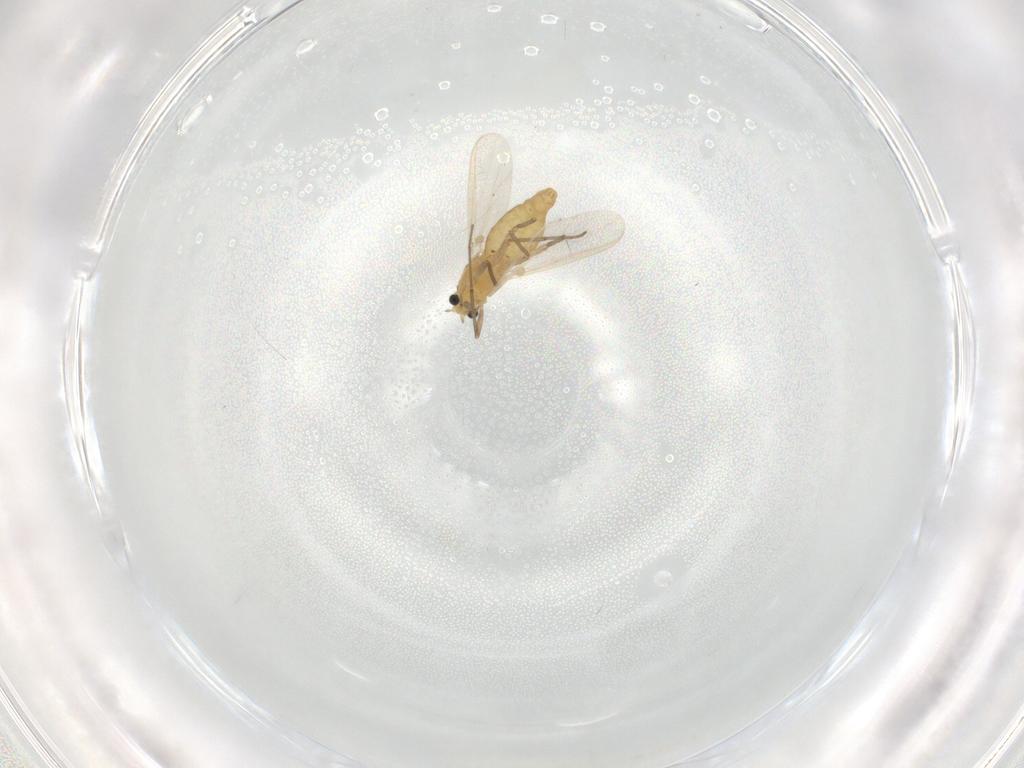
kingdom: Animalia
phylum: Arthropoda
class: Insecta
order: Diptera
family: Cecidomyiidae
